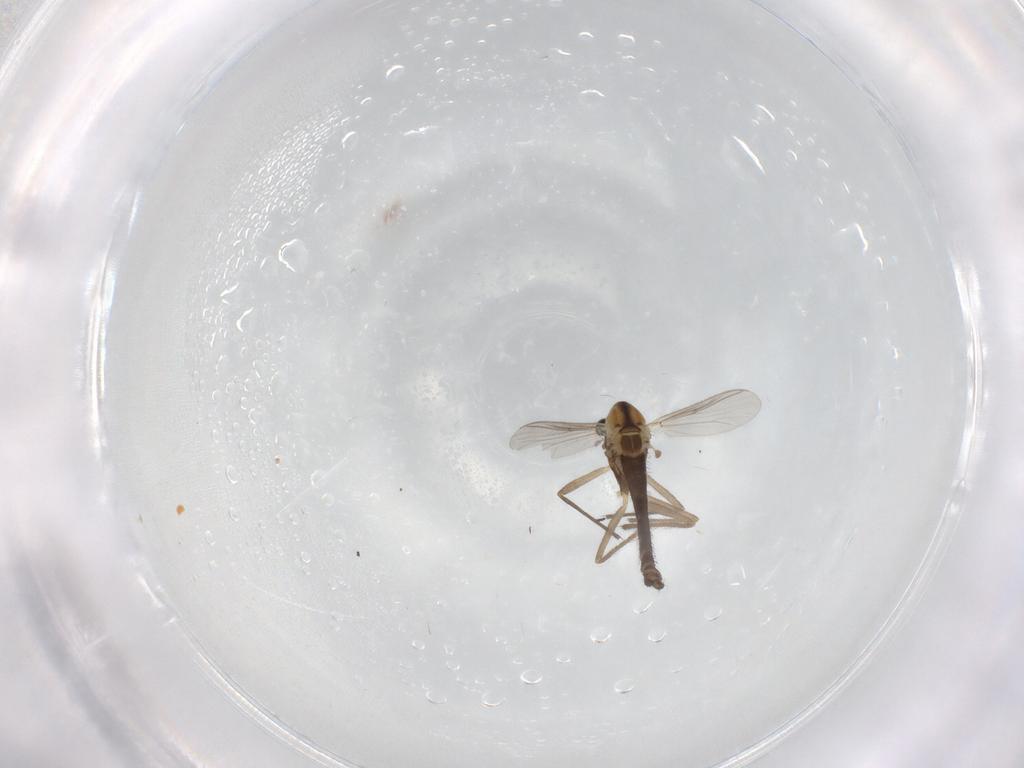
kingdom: Animalia
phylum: Arthropoda
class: Insecta
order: Diptera
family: Chironomidae
